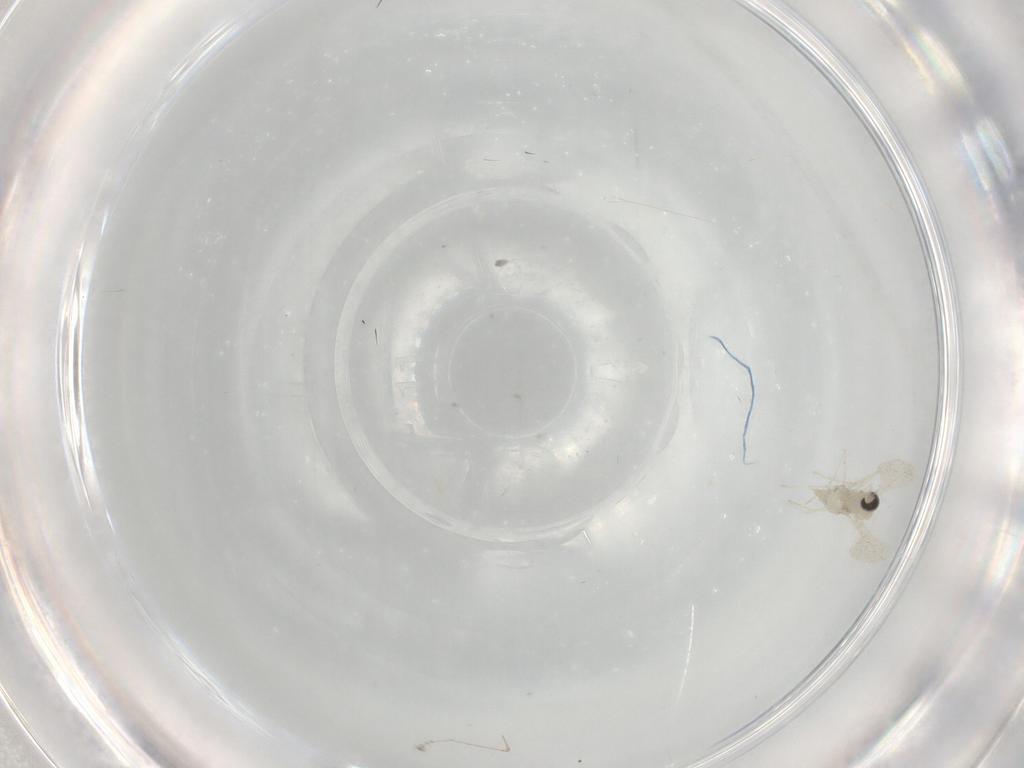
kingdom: Animalia
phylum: Arthropoda
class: Insecta
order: Diptera
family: Cecidomyiidae
